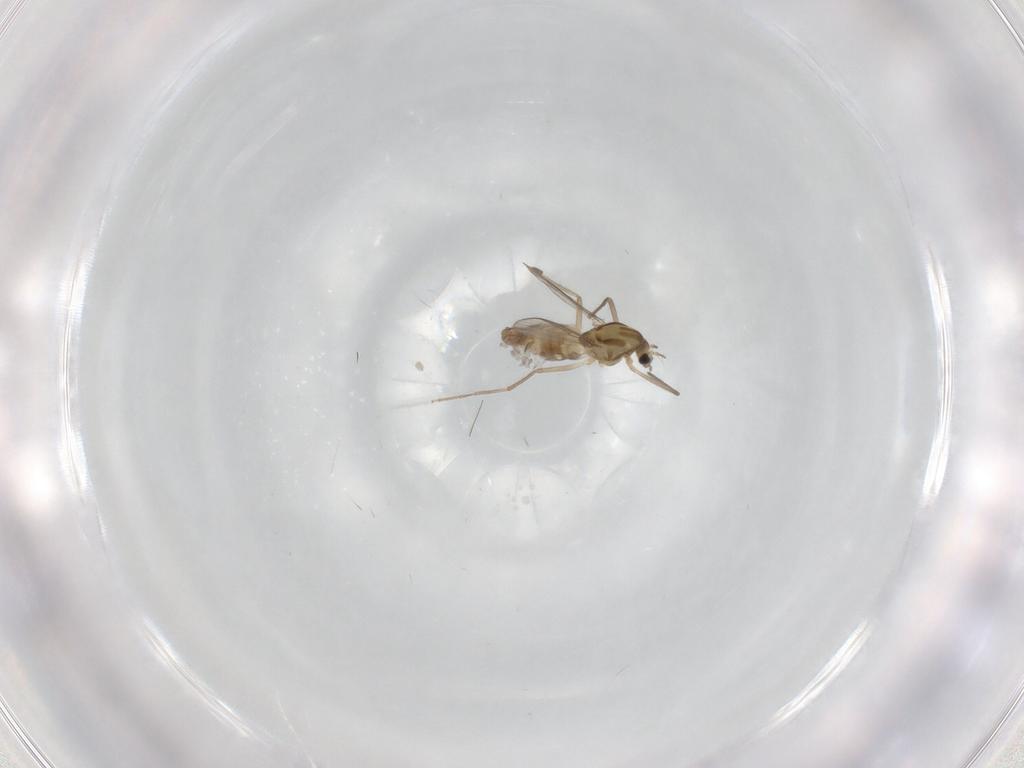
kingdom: Animalia
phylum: Arthropoda
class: Insecta
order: Diptera
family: Chironomidae
